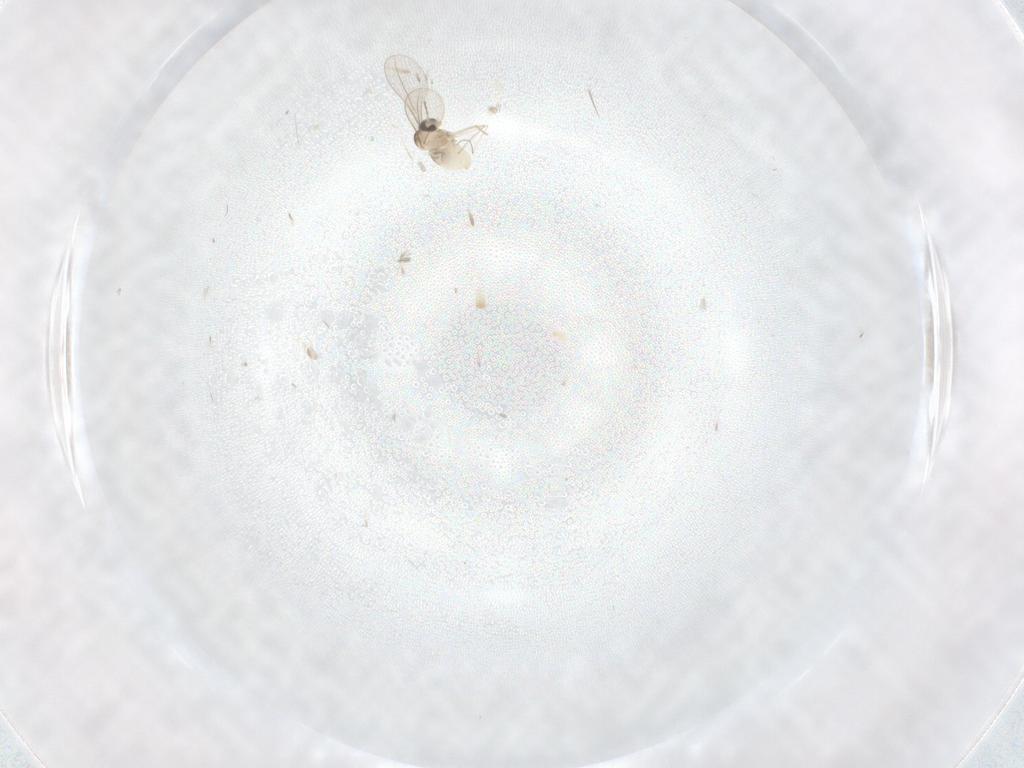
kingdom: Animalia
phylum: Arthropoda
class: Insecta
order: Diptera
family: Cecidomyiidae
